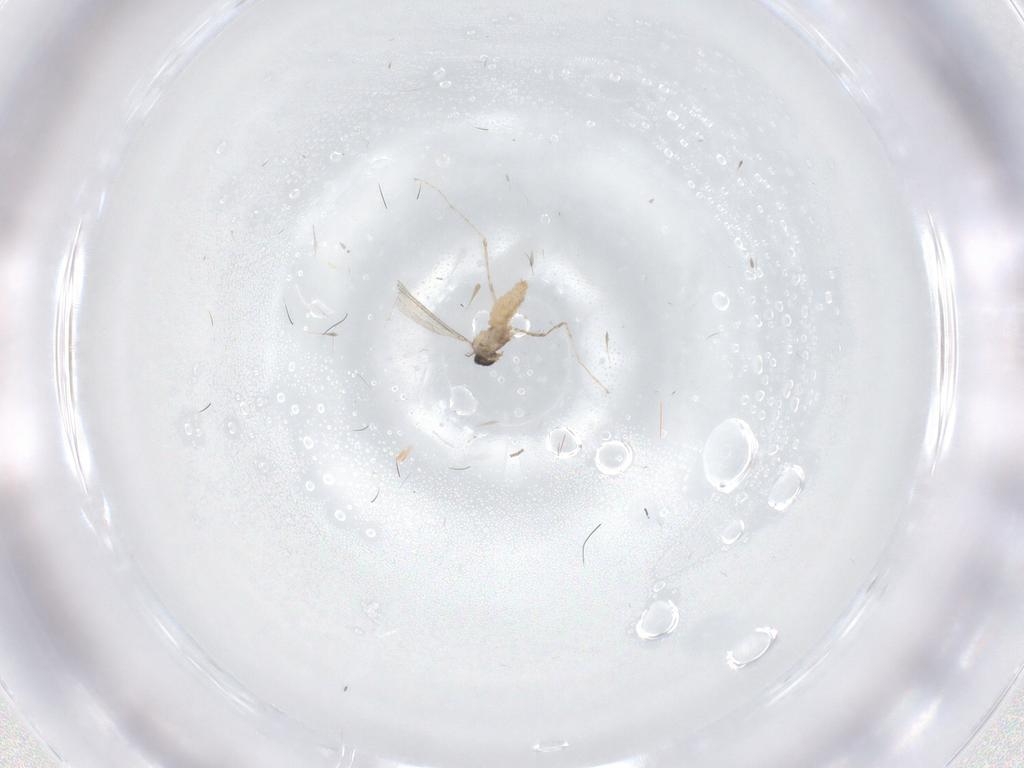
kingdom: Animalia
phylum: Arthropoda
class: Insecta
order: Diptera
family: Cecidomyiidae
